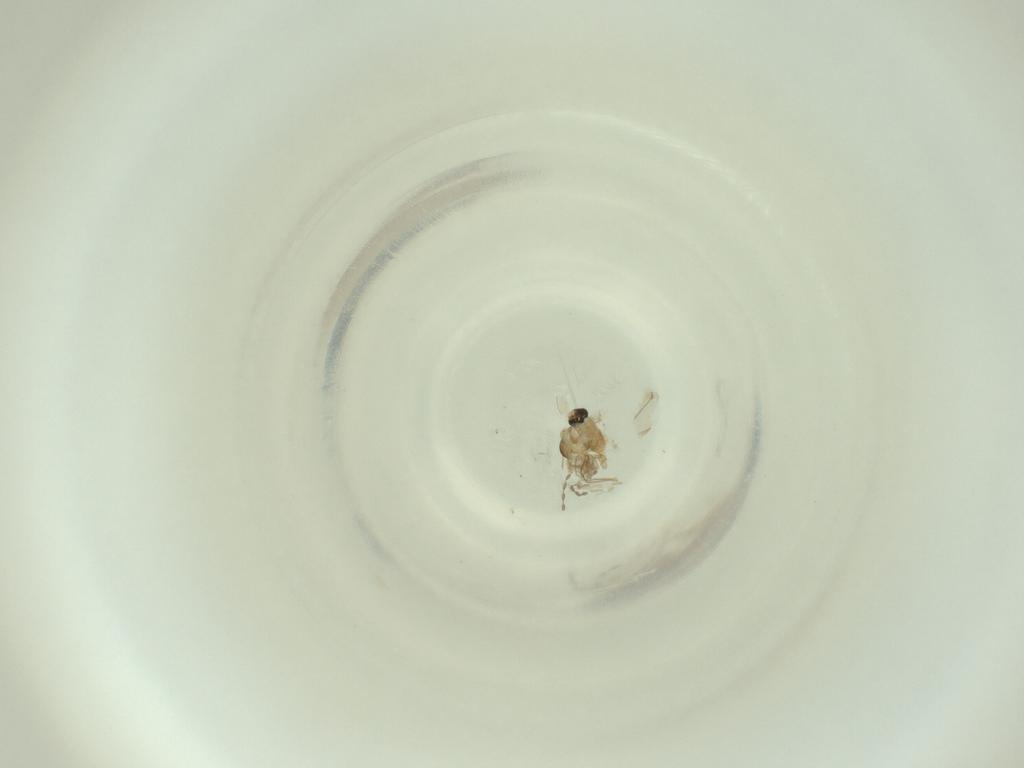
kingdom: Animalia
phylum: Arthropoda
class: Insecta
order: Diptera
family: Cecidomyiidae
